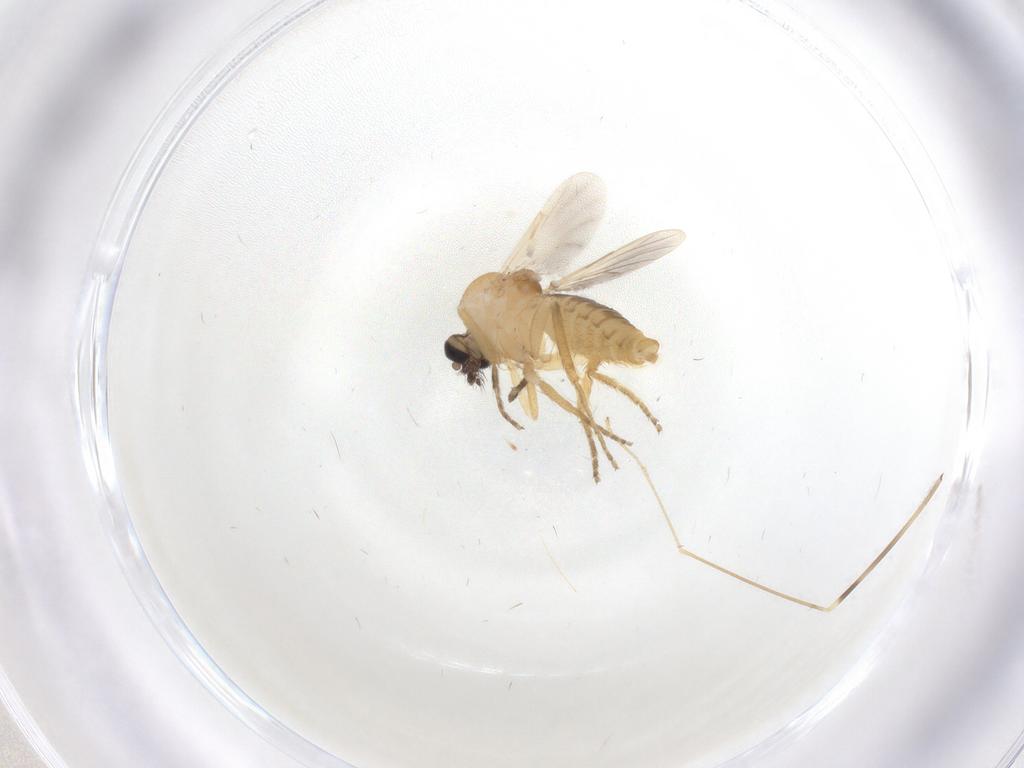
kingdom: Animalia
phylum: Arthropoda
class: Insecta
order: Diptera
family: Ceratopogonidae
